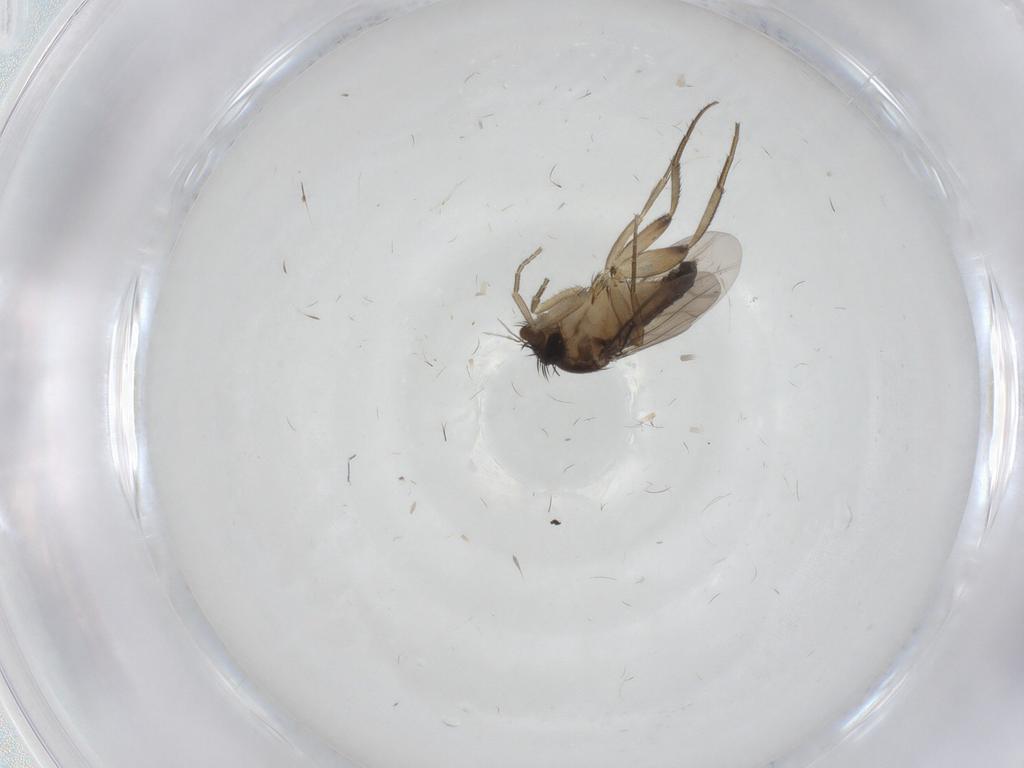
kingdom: Animalia
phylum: Arthropoda
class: Insecta
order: Diptera
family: Phoridae
